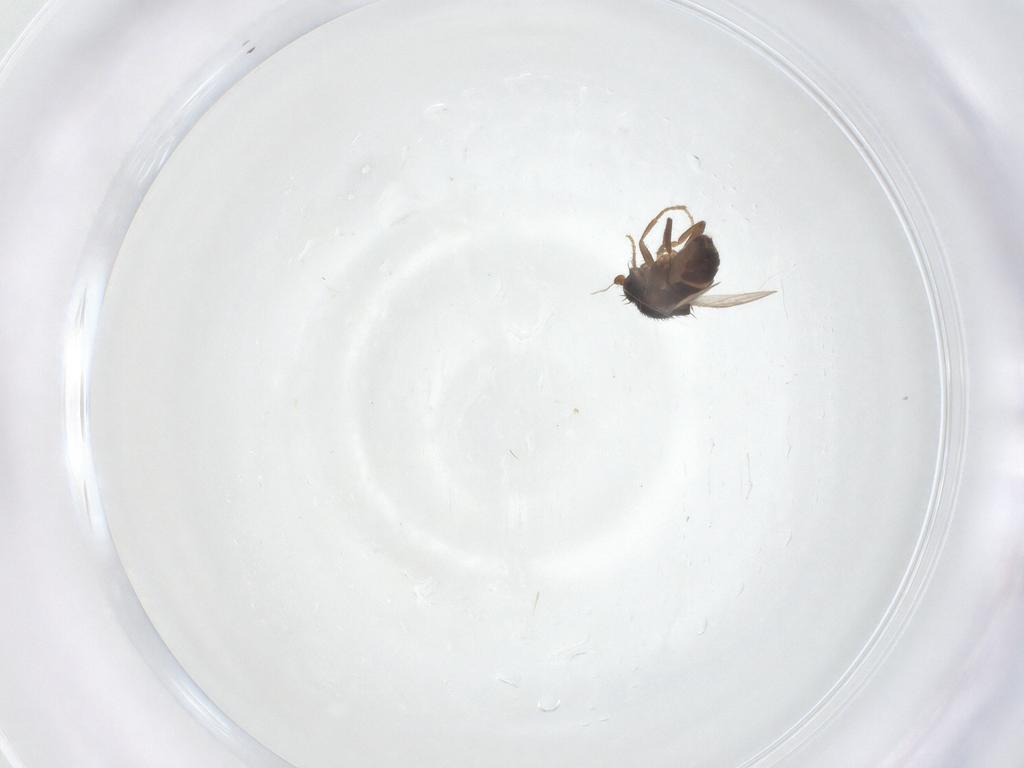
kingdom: Animalia
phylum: Arthropoda
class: Insecta
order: Diptera
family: Sphaeroceridae
